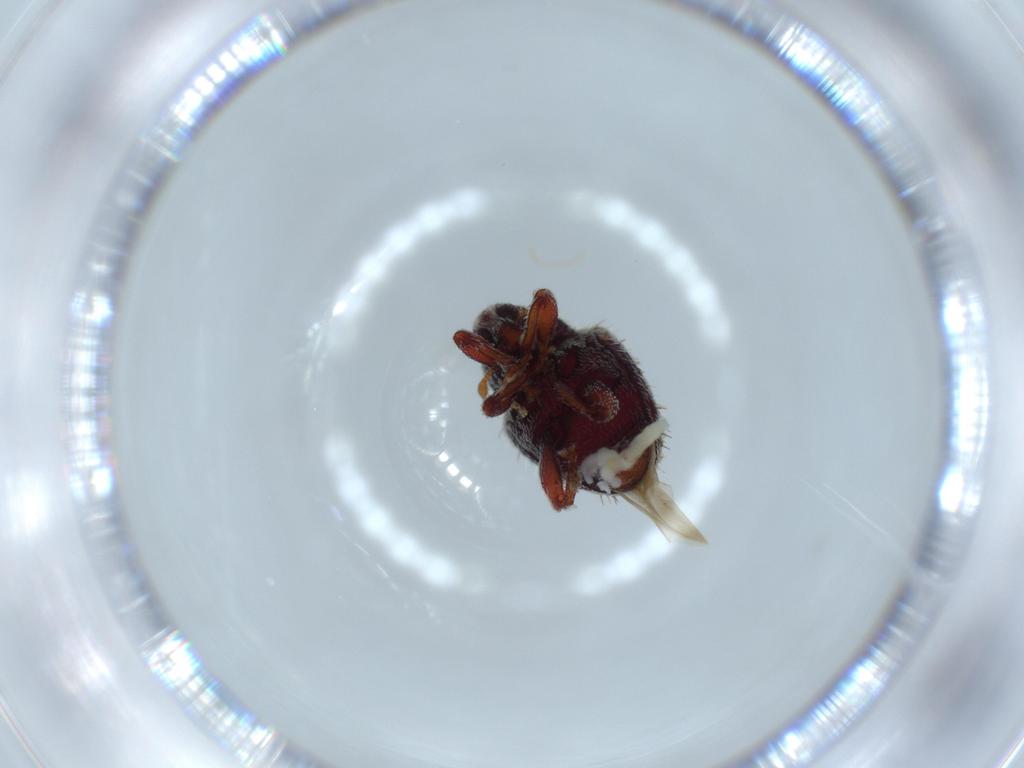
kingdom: Animalia
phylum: Arthropoda
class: Insecta
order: Coleoptera
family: Curculionidae
